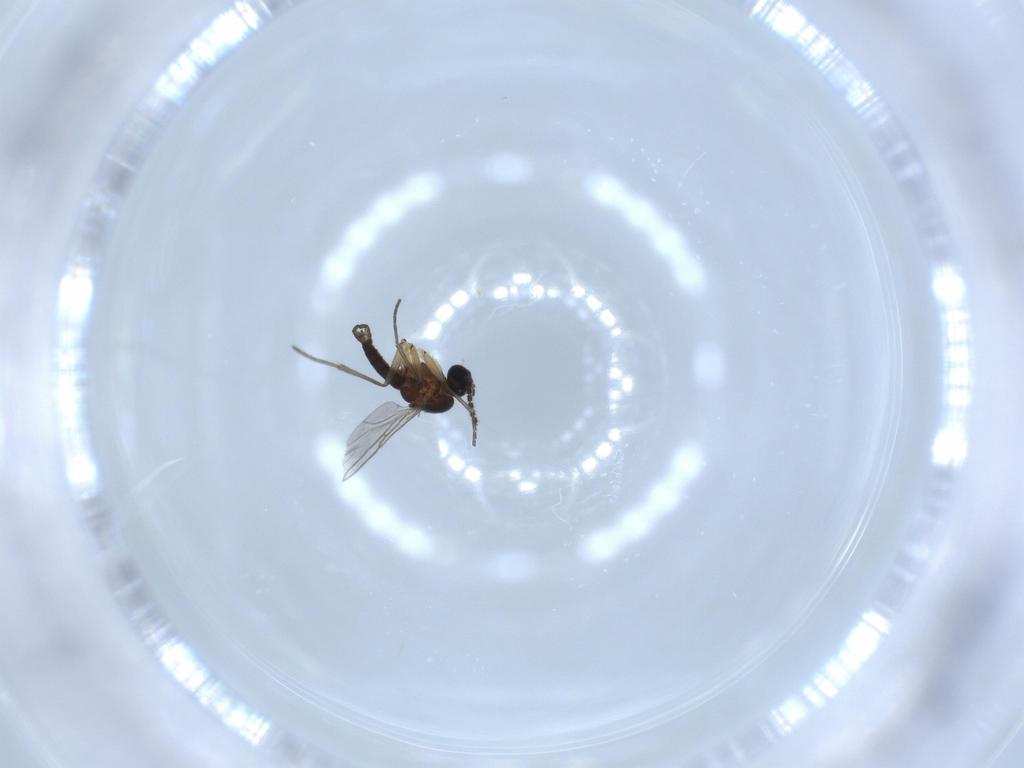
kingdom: Animalia
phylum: Arthropoda
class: Insecta
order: Diptera
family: Sciaridae
